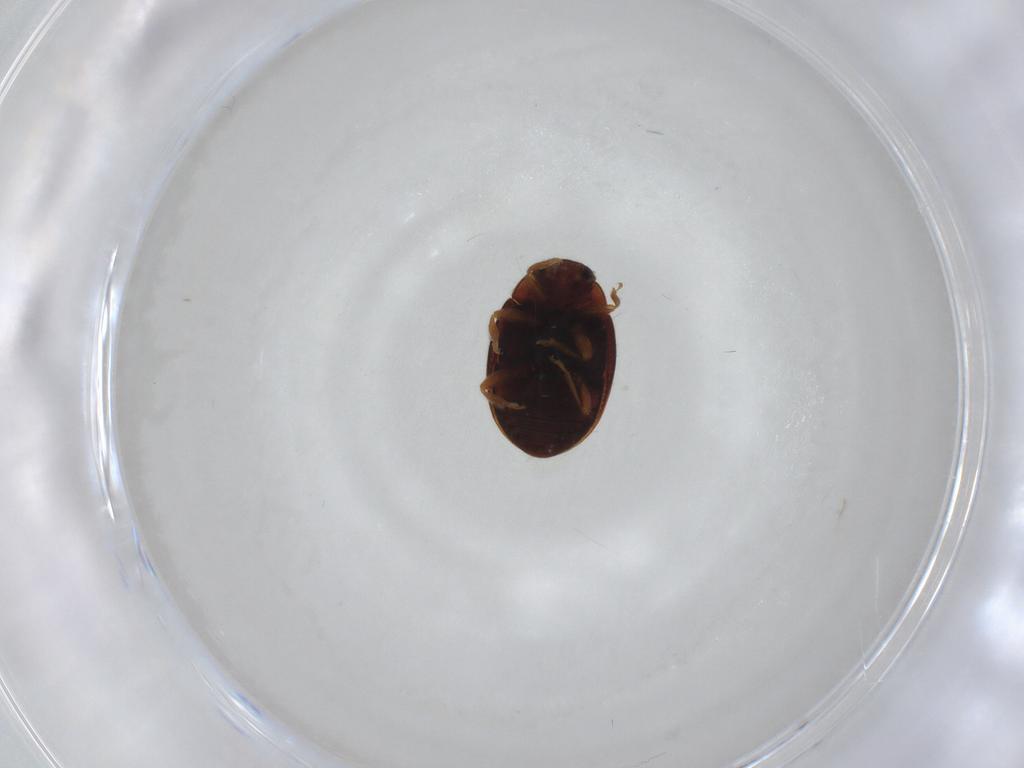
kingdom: Animalia
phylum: Arthropoda
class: Insecta
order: Coleoptera
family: Coccinellidae
